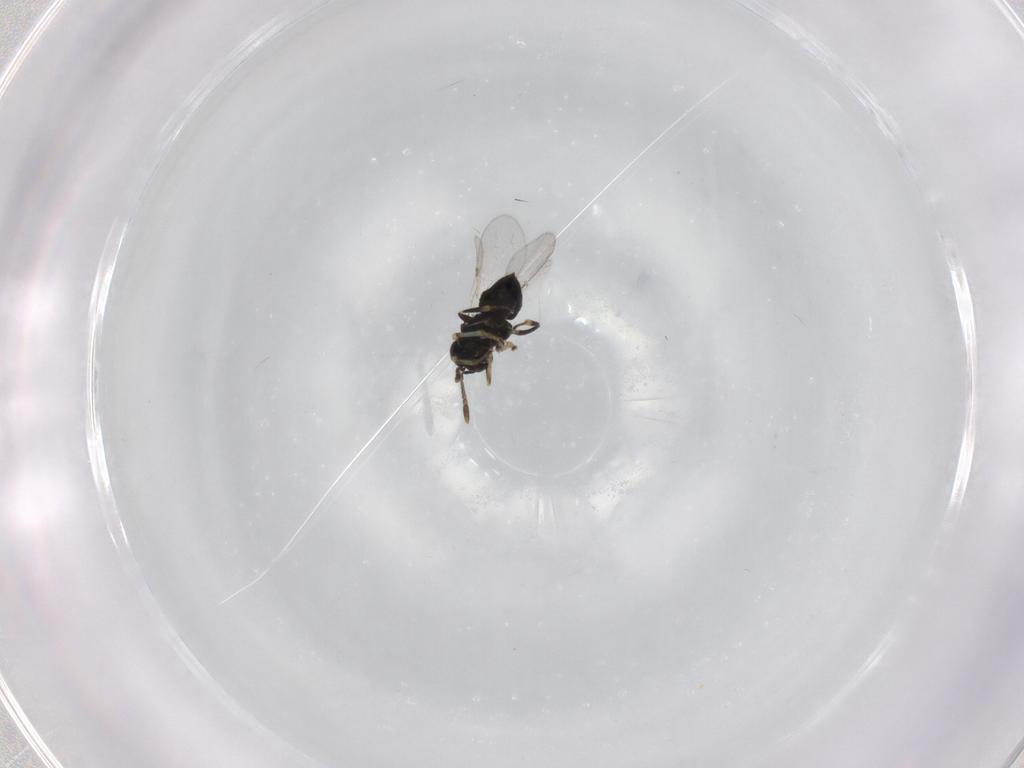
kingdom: Animalia
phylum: Arthropoda
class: Insecta
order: Hymenoptera
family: Encyrtidae
